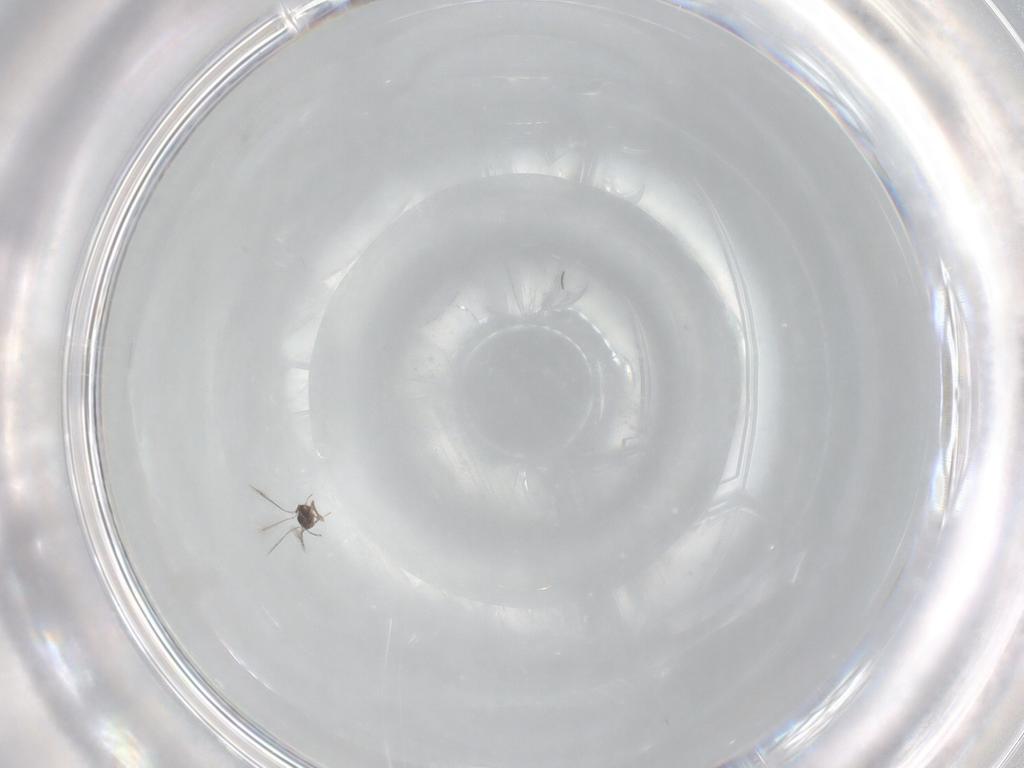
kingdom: Animalia
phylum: Arthropoda
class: Insecta
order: Hymenoptera
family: Mymaridae
